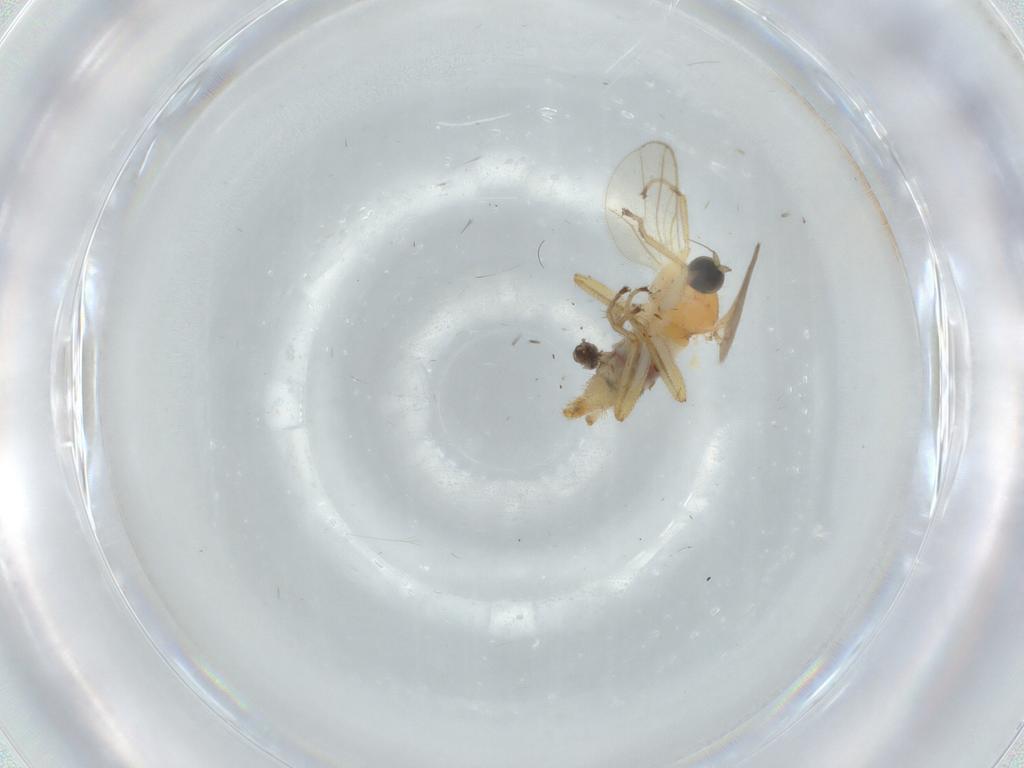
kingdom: Animalia
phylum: Arthropoda
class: Insecta
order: Diptera
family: Hybotidae
